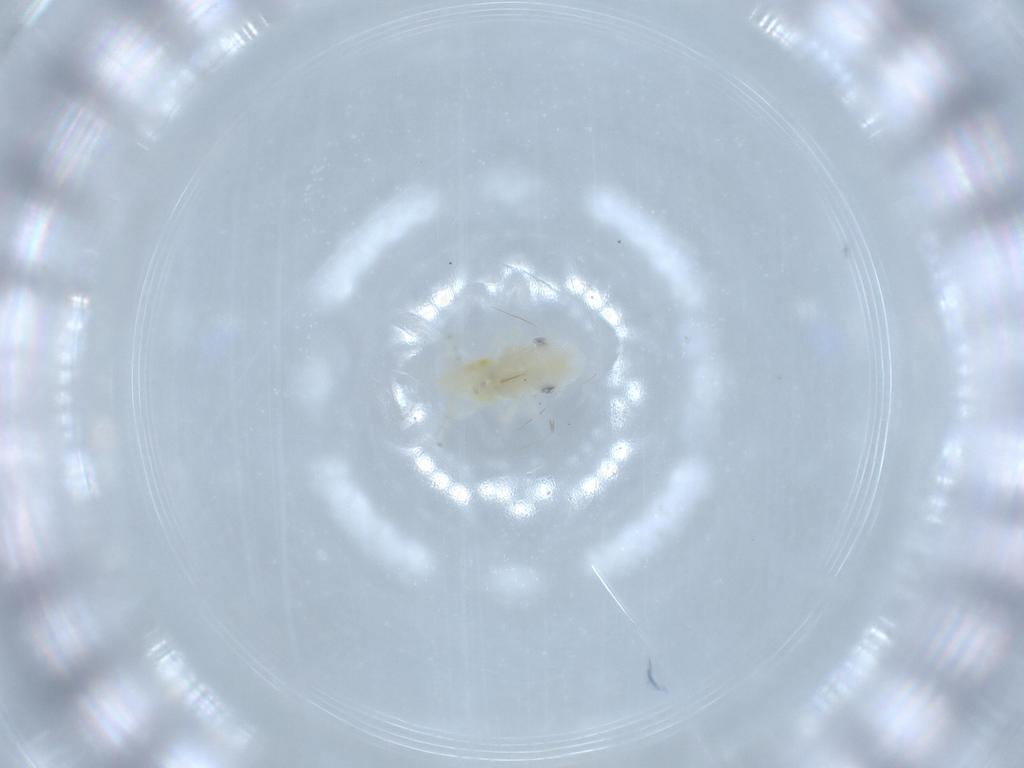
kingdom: Animalia
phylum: Arthropoda
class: Insecta
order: Hemiptera
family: Cicadellidae
